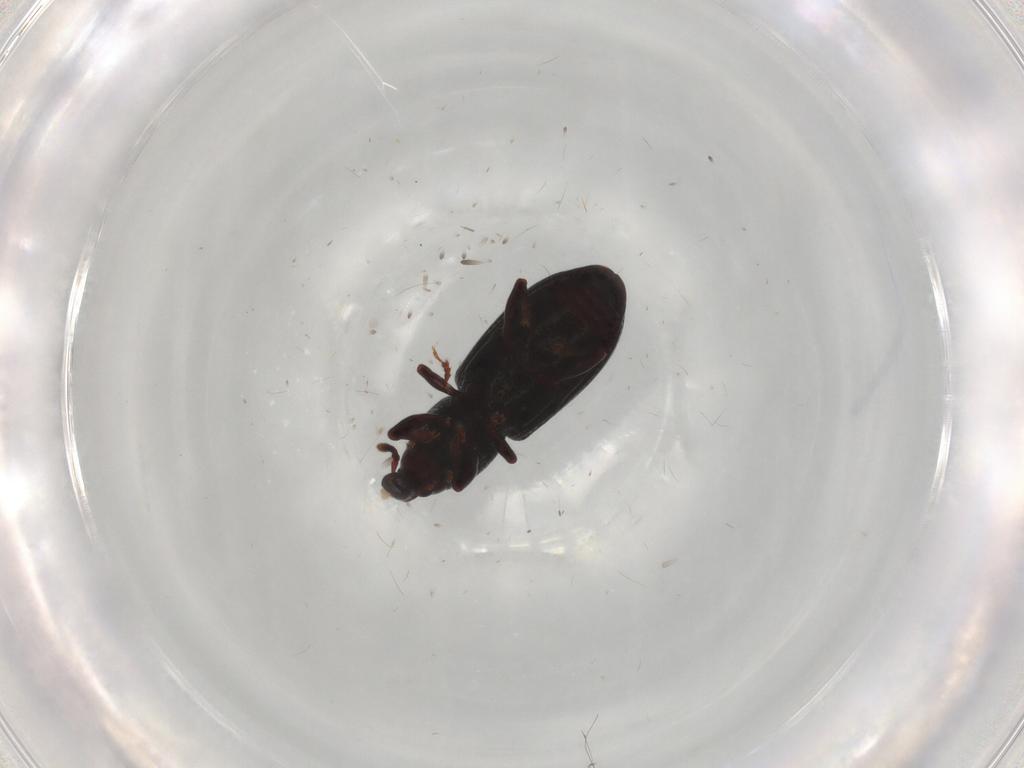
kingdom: Animalia
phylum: Arthropoda
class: Insecta
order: Coleoptera
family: Curculionidae
